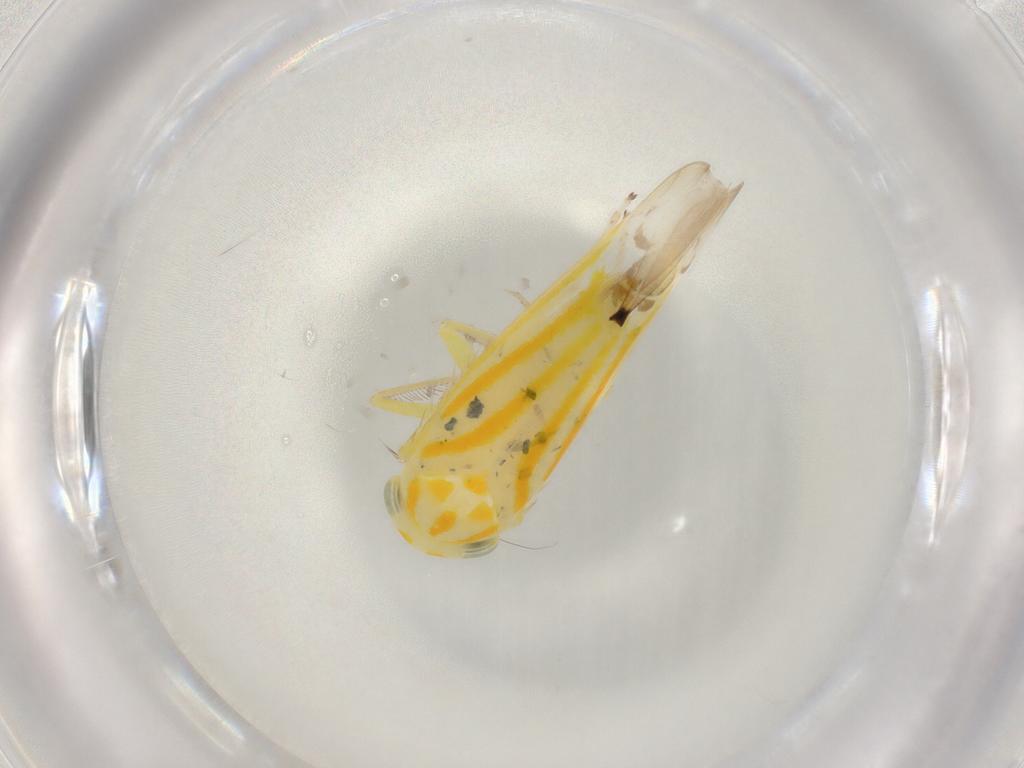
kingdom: Animalia
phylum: Arthropoda
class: Insecta
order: Hemiptera
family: Cicadellidae
